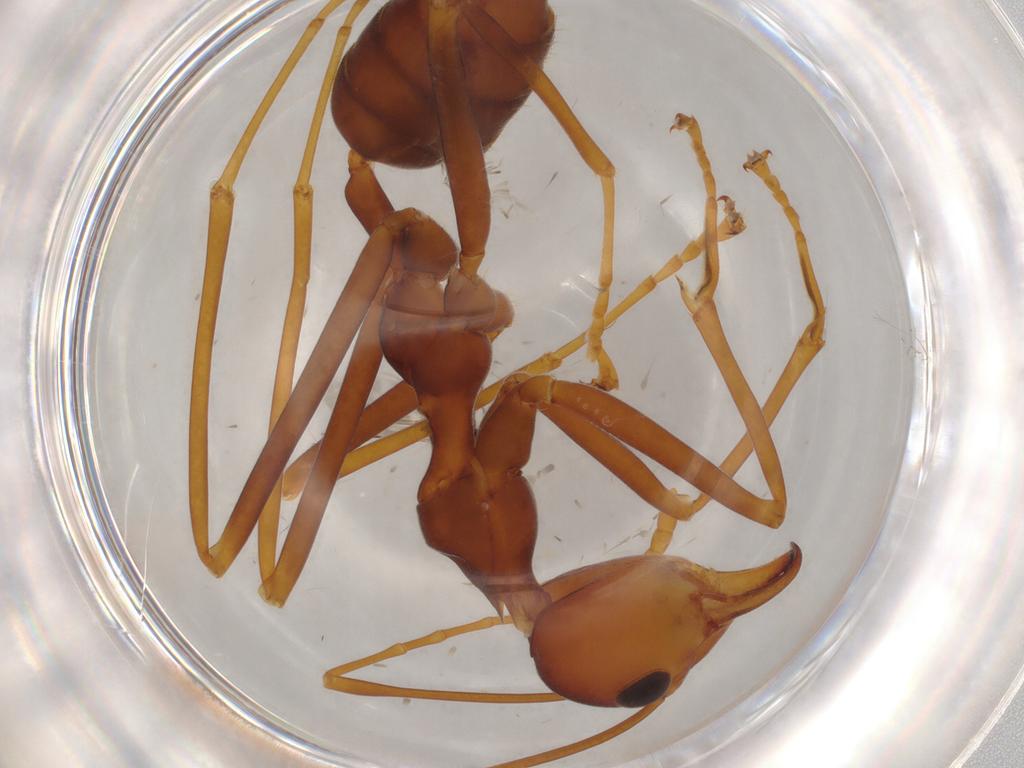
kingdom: Animalia
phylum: Arthropoda
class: Insecta
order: Hymenoptera
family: Formicidae
